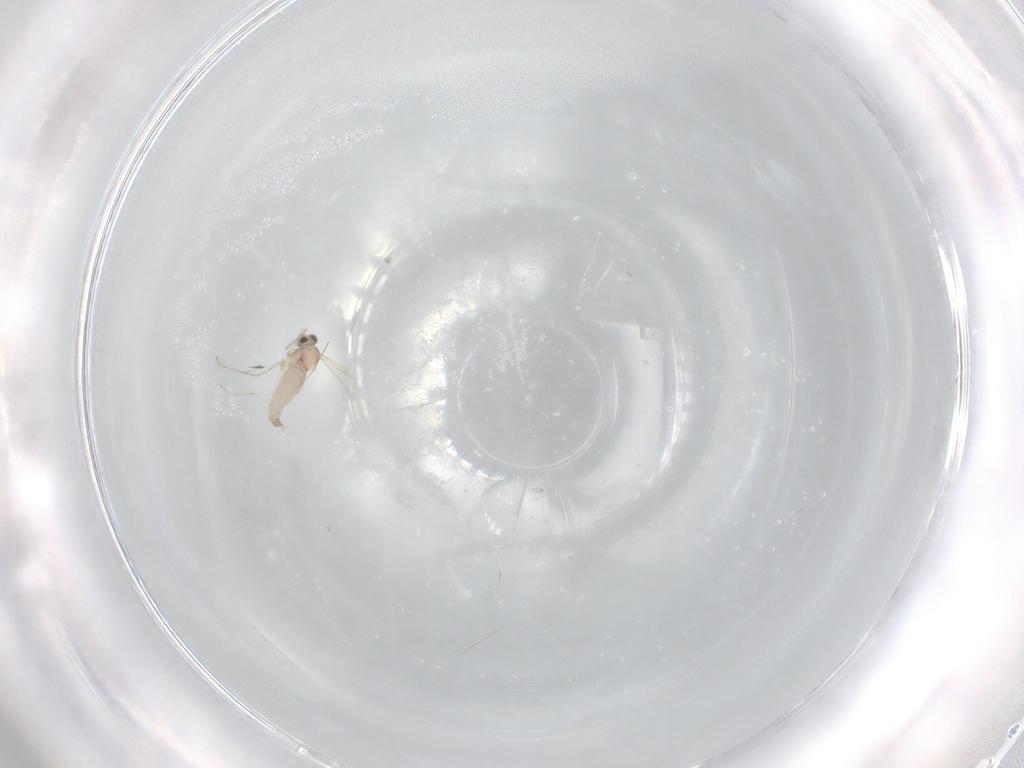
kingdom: Animalia
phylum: Arthropoda
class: Insecta
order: Diptera
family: Cecidomyiidae
